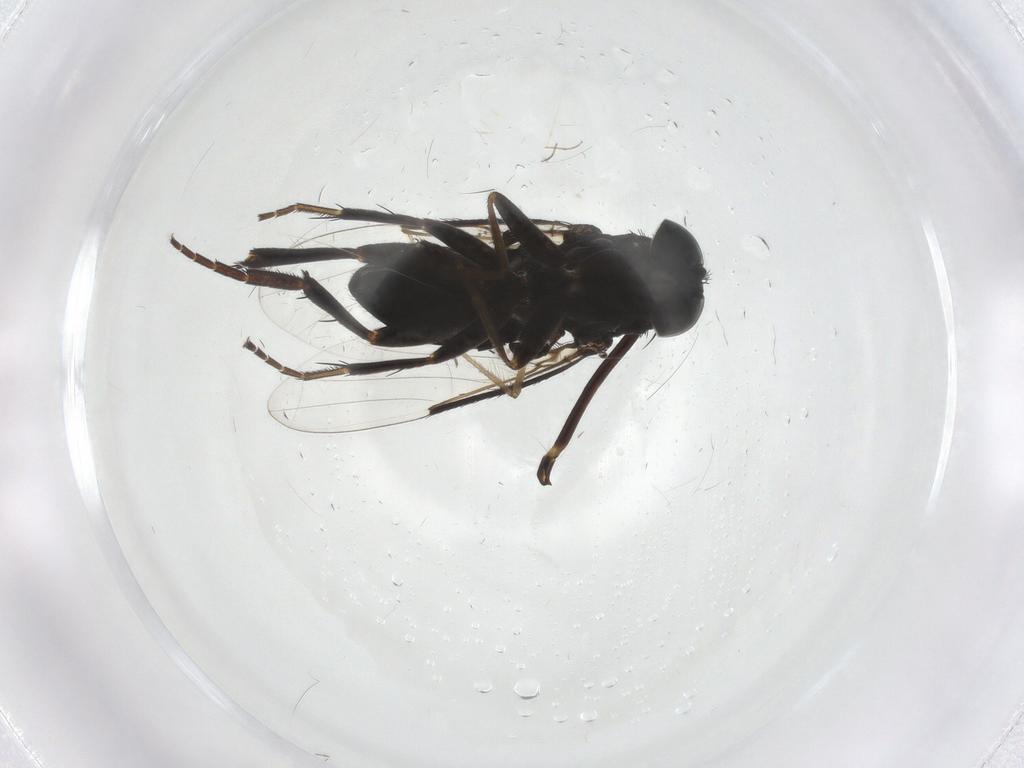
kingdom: Animalia
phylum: Arthropoda
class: Insecta
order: Diptera
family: Phoridae
